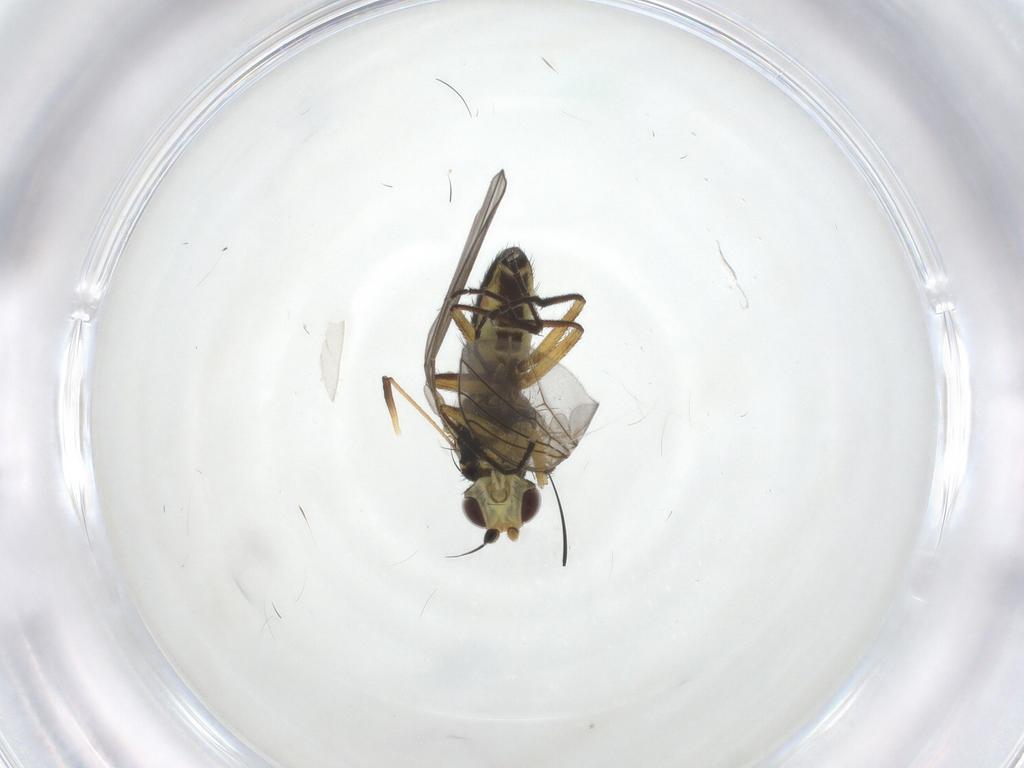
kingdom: Animalia
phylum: Arthropoda
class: Insecta
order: Diptera
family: Agromyzidae
